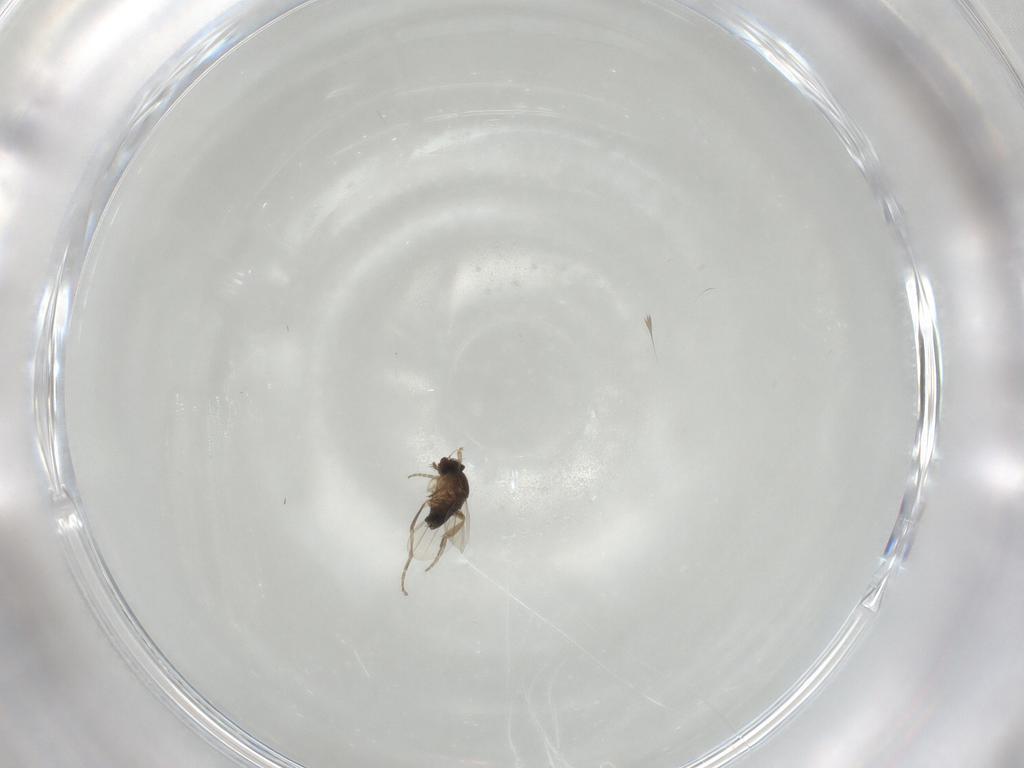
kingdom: Animalia
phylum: Arthropoda
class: Insecta
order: Diptera
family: Phoridae
